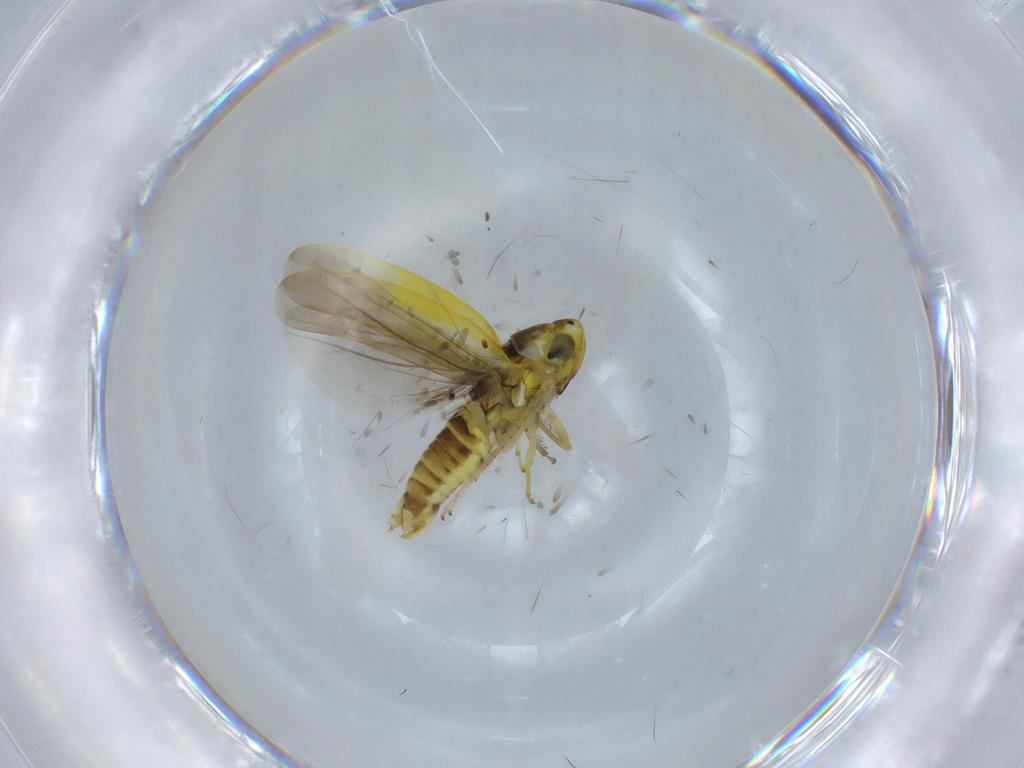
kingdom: Animalia
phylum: Arthropoda
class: Insecta
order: Hemiptera
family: Cicadellidae
